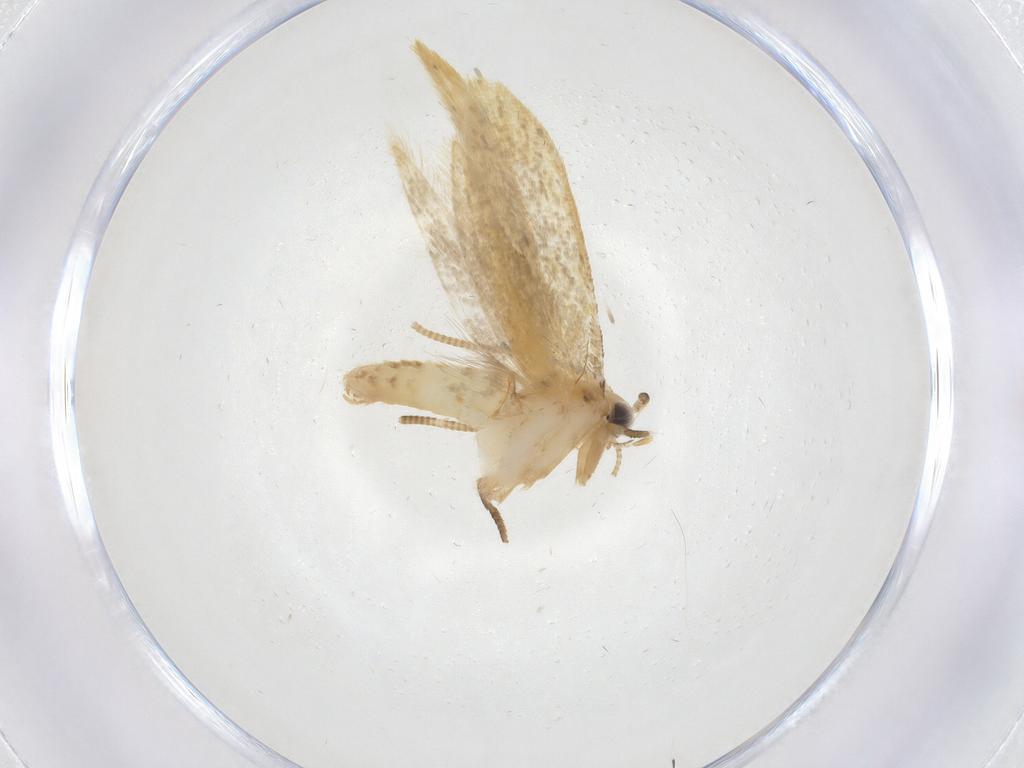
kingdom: Animalia
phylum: Arthropoda
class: Insecta
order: Lepidoptera
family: Tineidae
